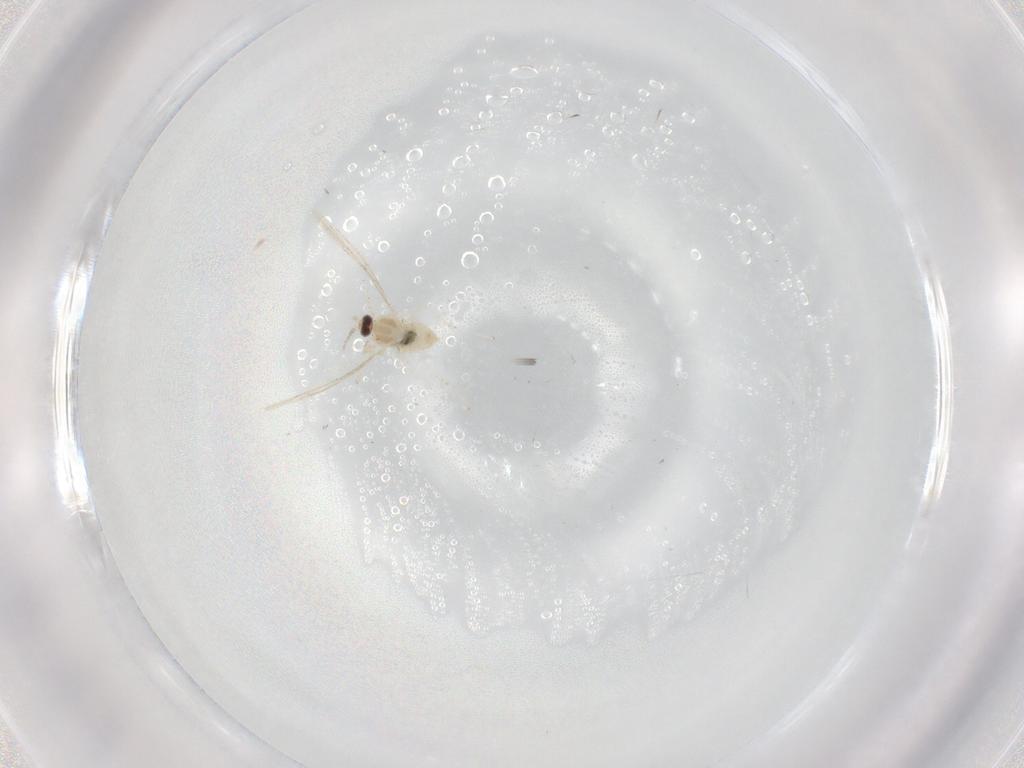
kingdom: Animalia
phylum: Arthropoda
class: Insecta
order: Diptera
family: Cecidomyiidae
